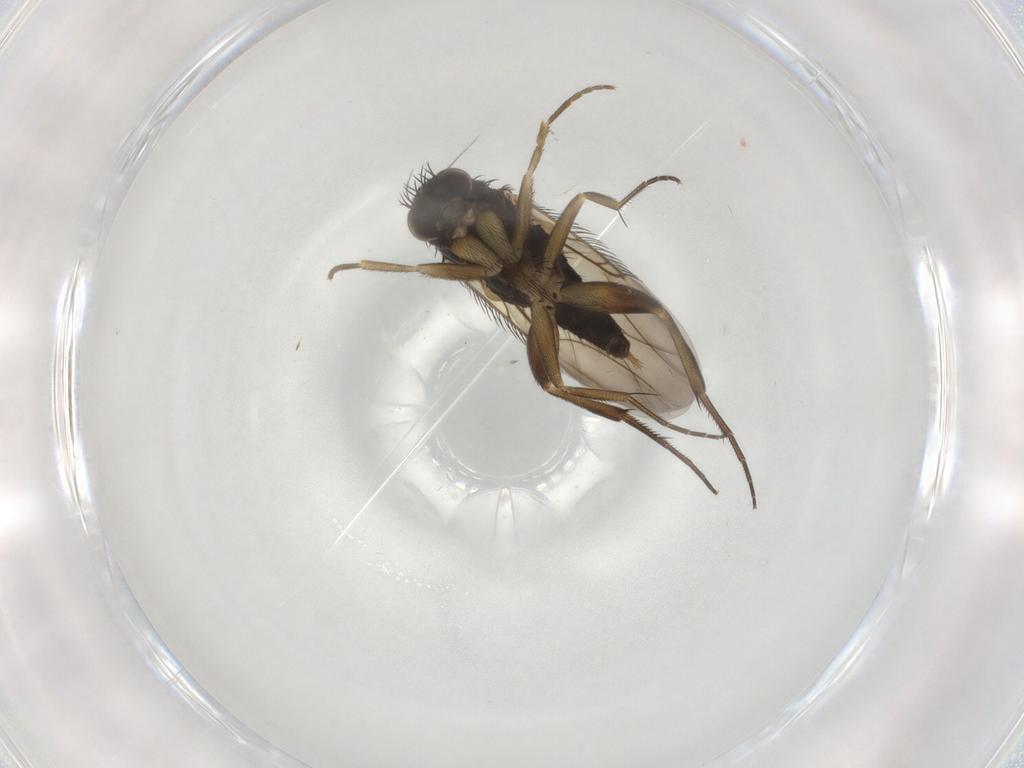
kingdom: Animalia
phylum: Arthropoda
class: Insecta
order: Diptera
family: Phoridae
